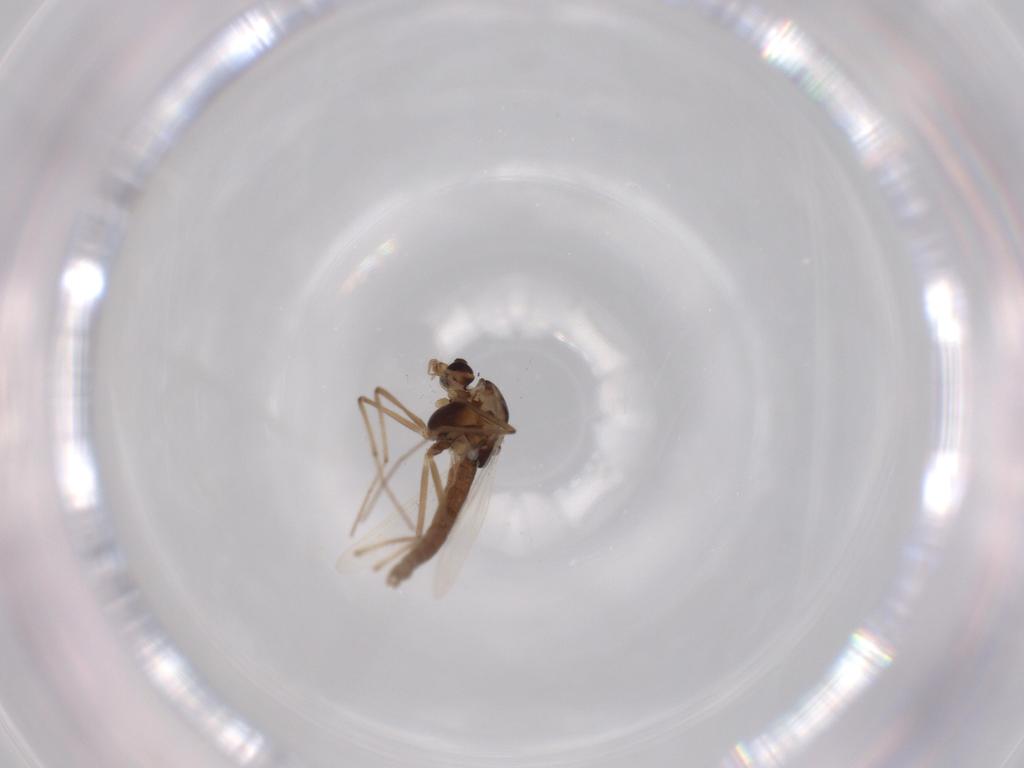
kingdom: Animalia
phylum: Arthropoda
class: Insecta
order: Diptera
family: Chironomidae
